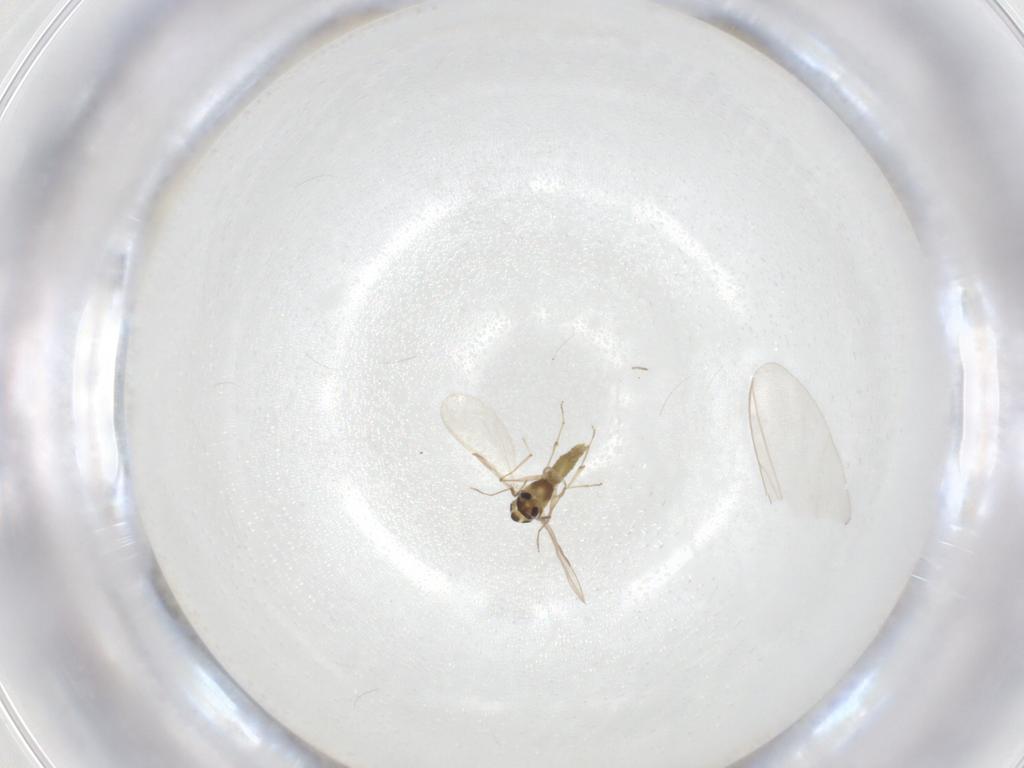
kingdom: Animalia
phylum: Arthropoda
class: Insecta
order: Diptera
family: Chironomidae
